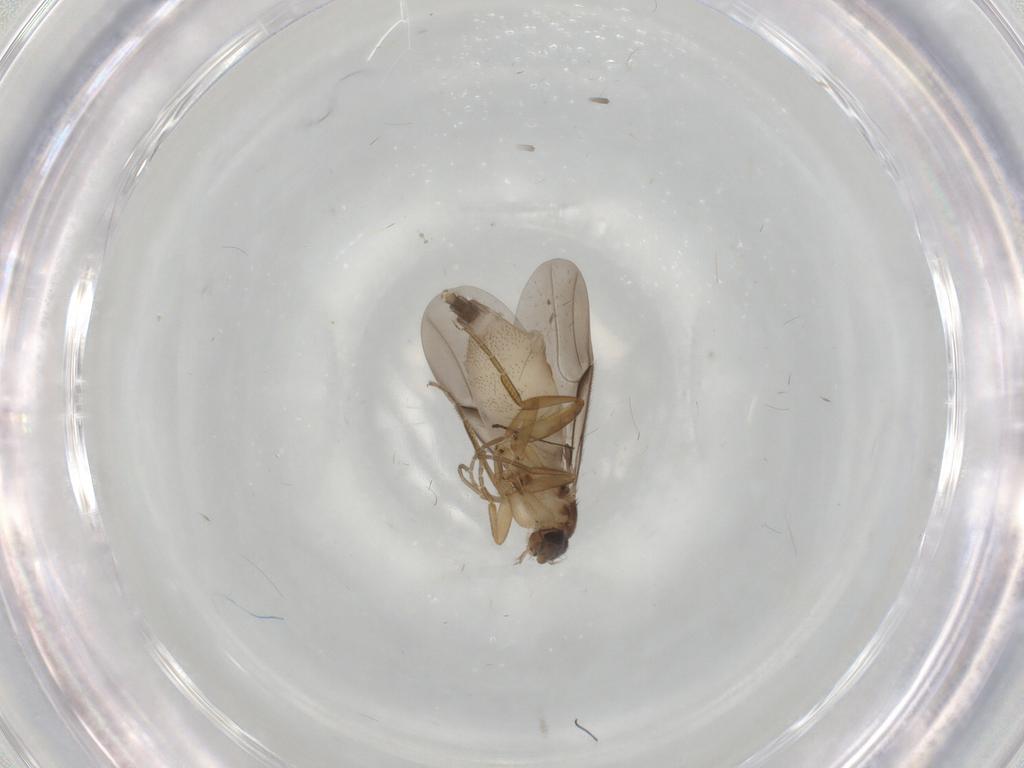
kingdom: Animalia
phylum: Arthropoda
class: Insecta
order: Diptera
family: Phoridae
